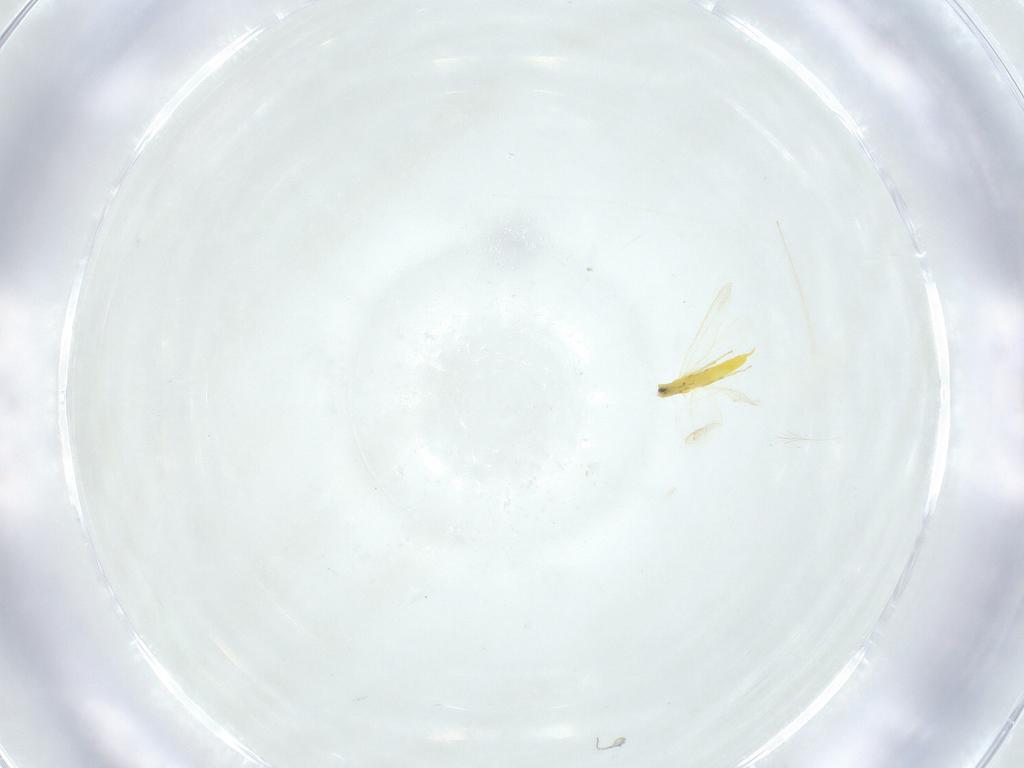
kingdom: Animalia
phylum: Arthropoda
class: Insecta
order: Hemiptera
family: Aleyrodidae
